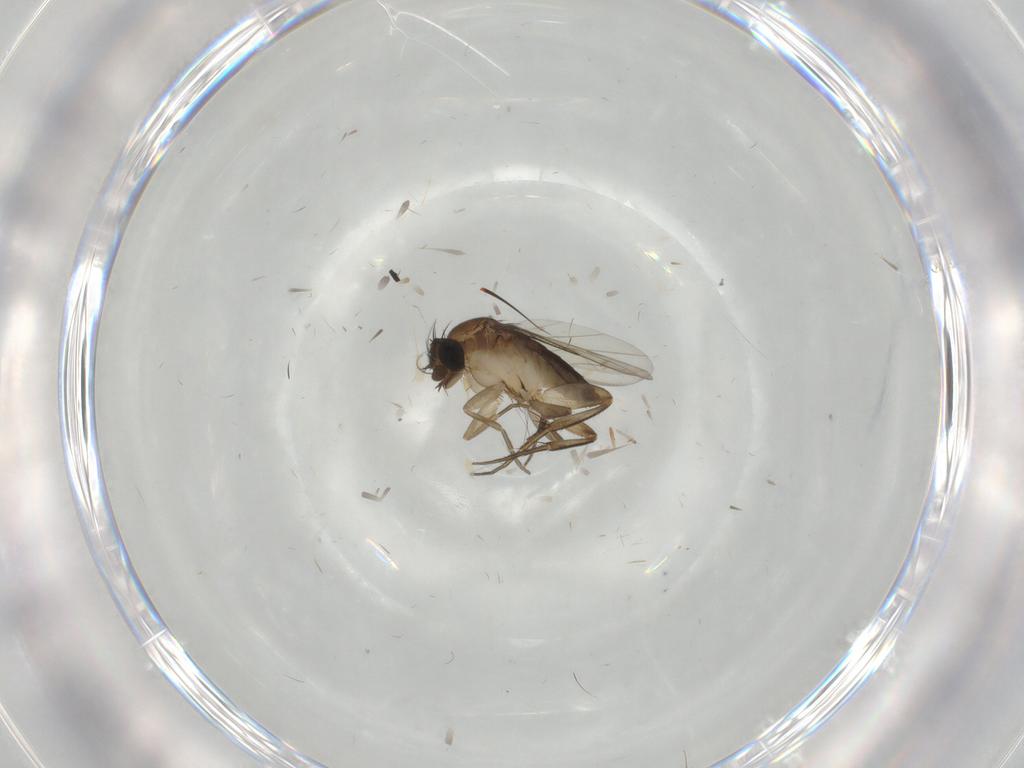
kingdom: Animalia
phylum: Arthropoda
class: Insecta
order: Diptera
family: Phoridae
